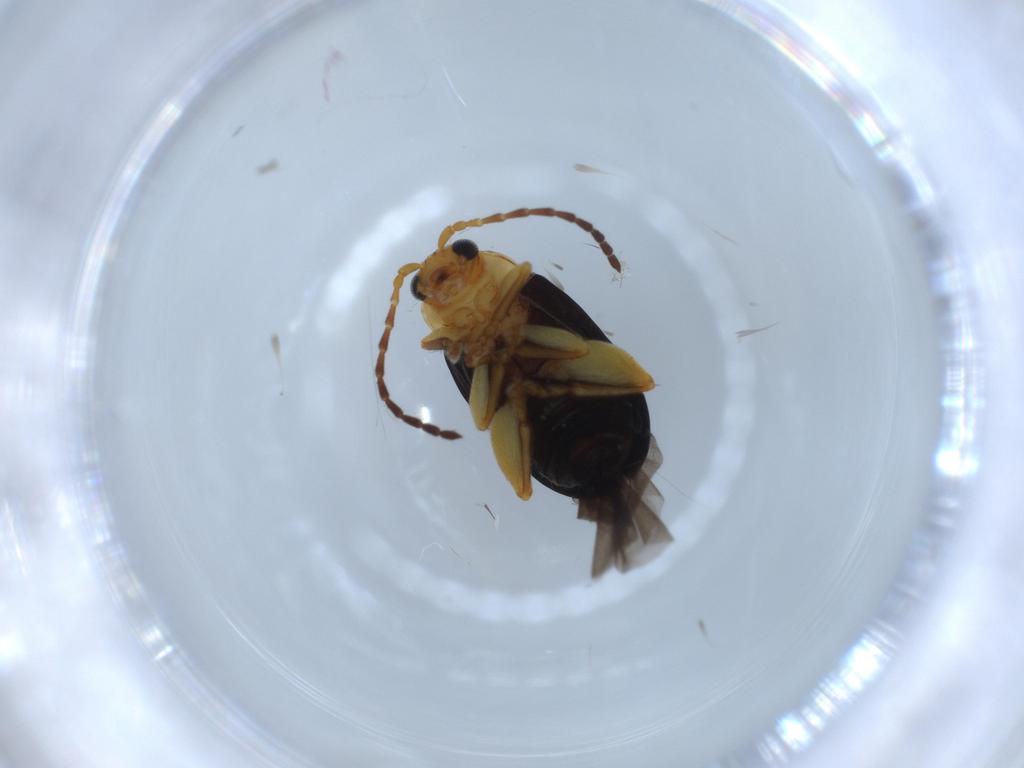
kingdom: Animalia
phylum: Arthropoda
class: Insecta
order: Coleoptera
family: Chrysomelidae
